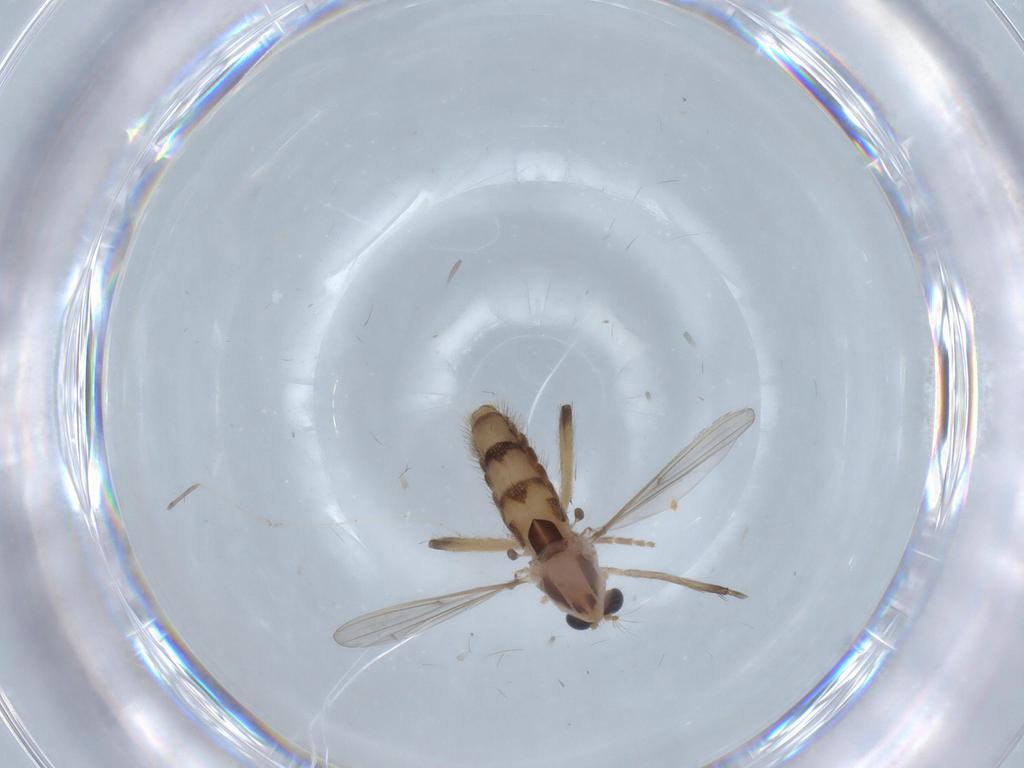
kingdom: Animalia
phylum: Arthropoda
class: Insecta
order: Diptera
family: Chironomidae
